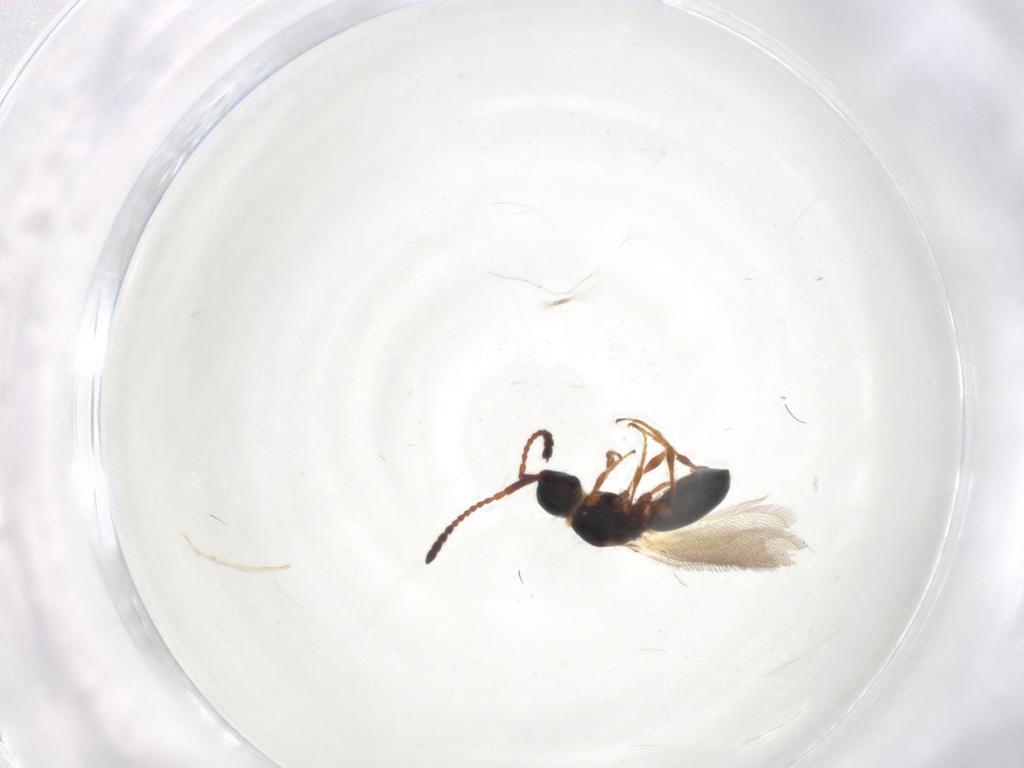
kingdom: Animalia
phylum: Arthropoda
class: Insecta
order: Hymenoptera
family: Diapriidae
